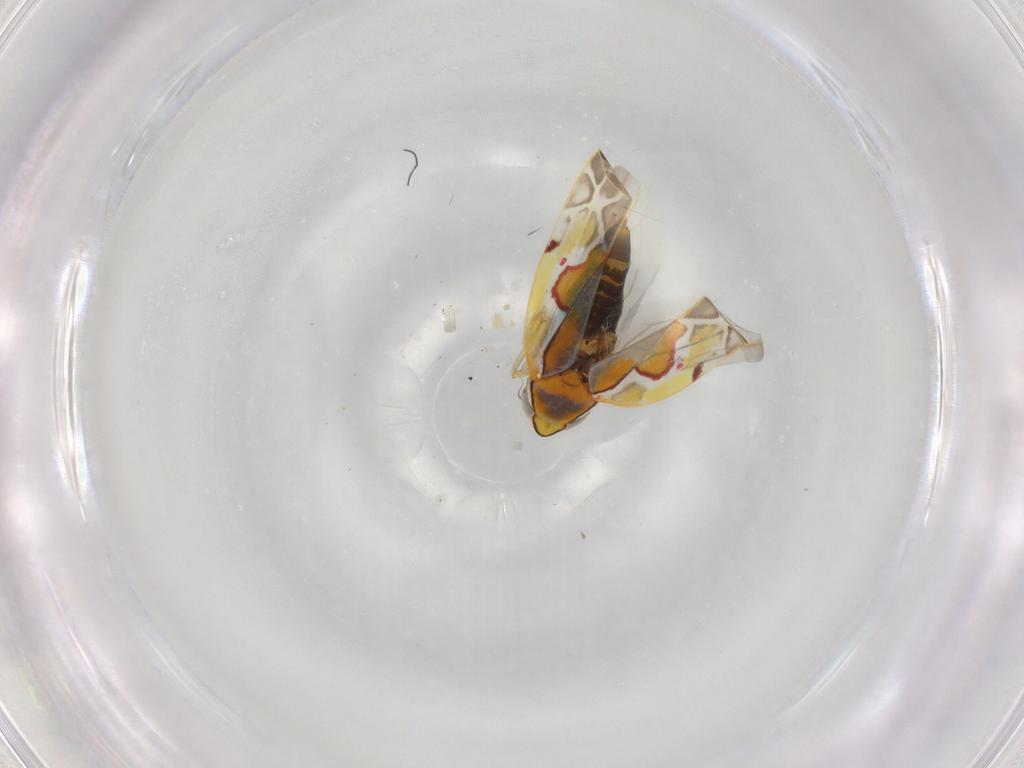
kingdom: Animalia
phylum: Arthropoda
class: Insecta
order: Hemiptera
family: Cicadellidae
